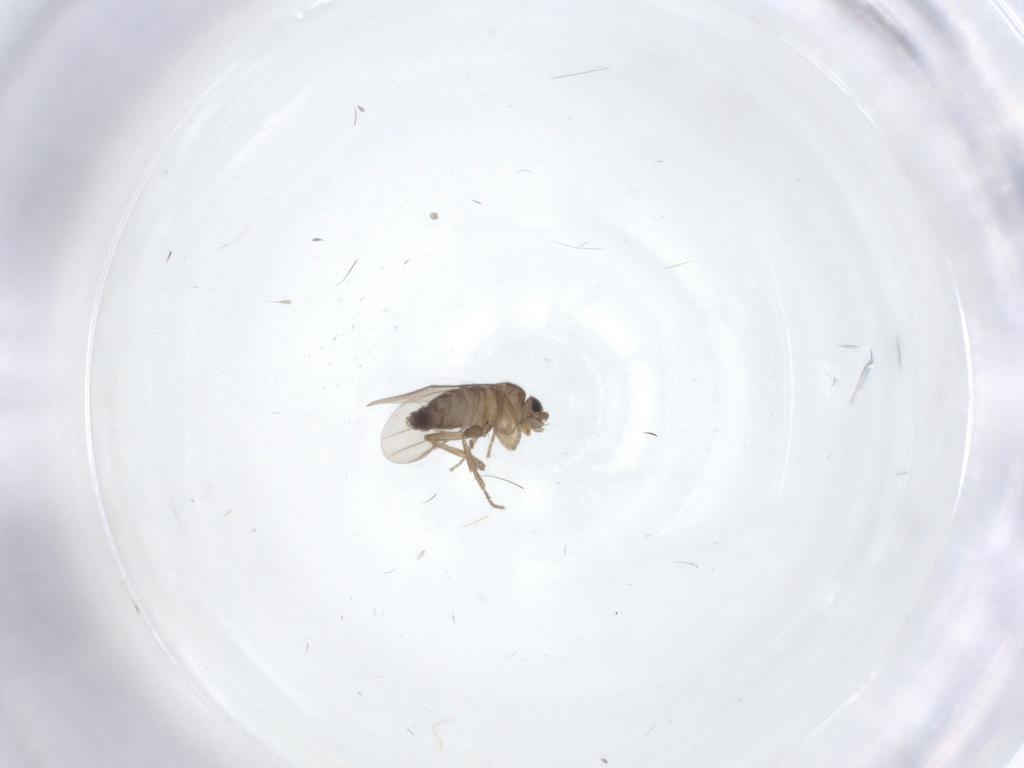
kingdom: Animalia
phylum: Arthropoda
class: Insecta
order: Diptera
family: Cecidomyiidae
